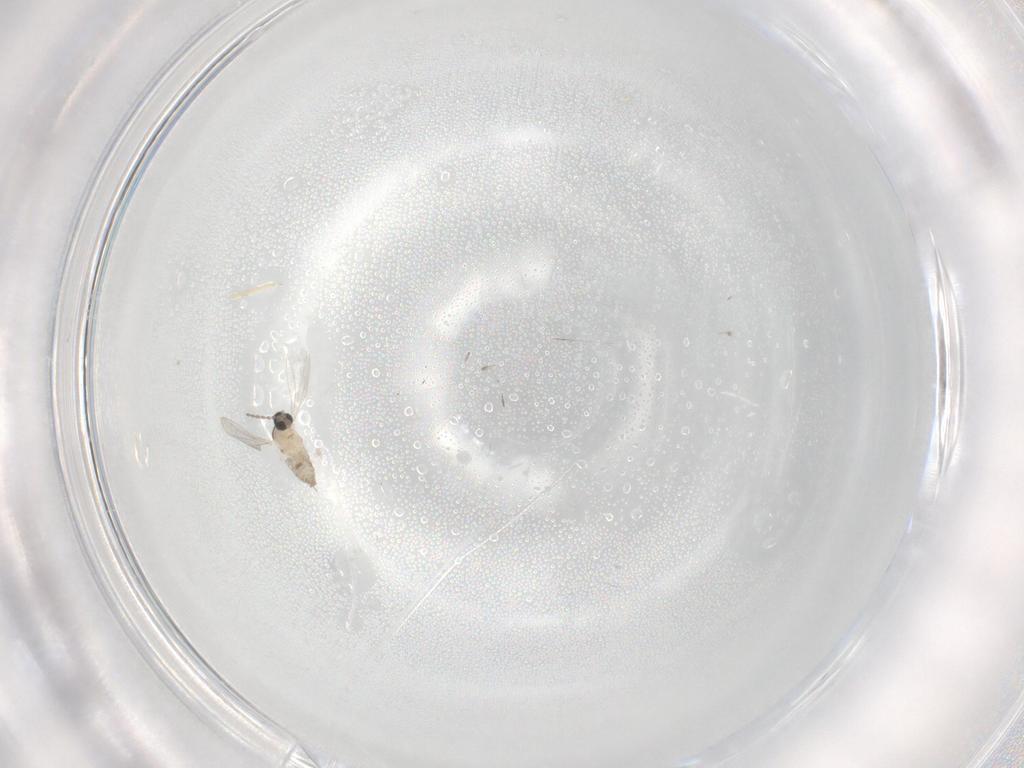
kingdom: Animalia
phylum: Arthropoda
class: Insecta
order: Diptera
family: Cecidomyiidae
